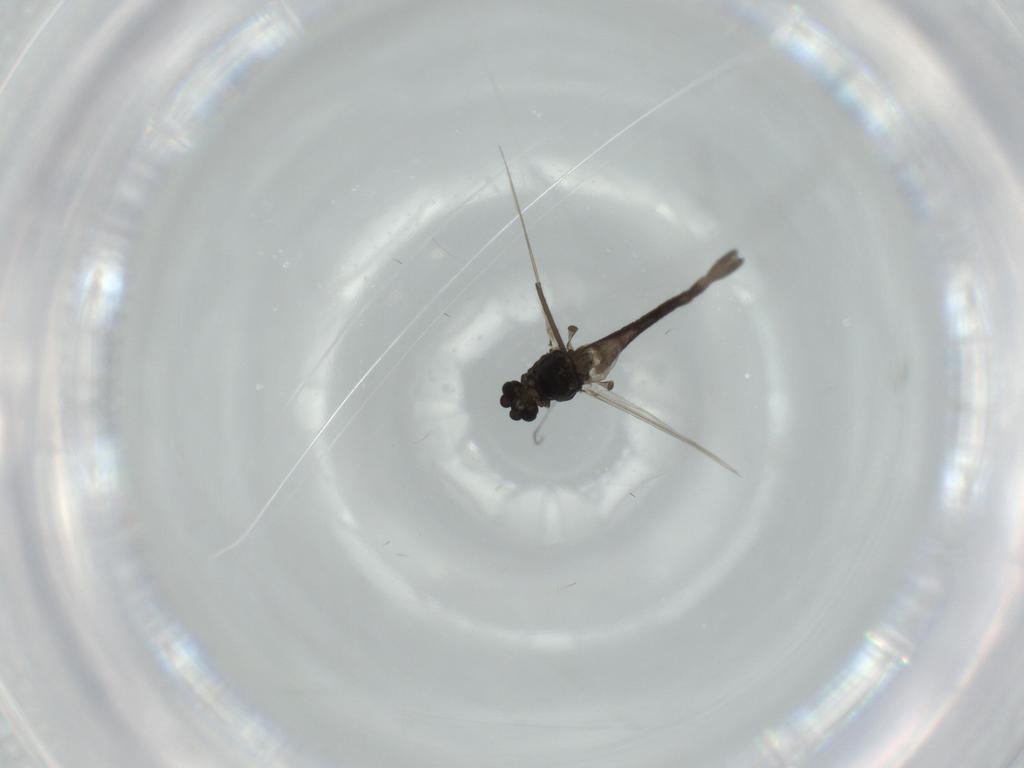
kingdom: Animalia
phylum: Arthropoda
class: Insecta
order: Diptera
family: Chironomidae
